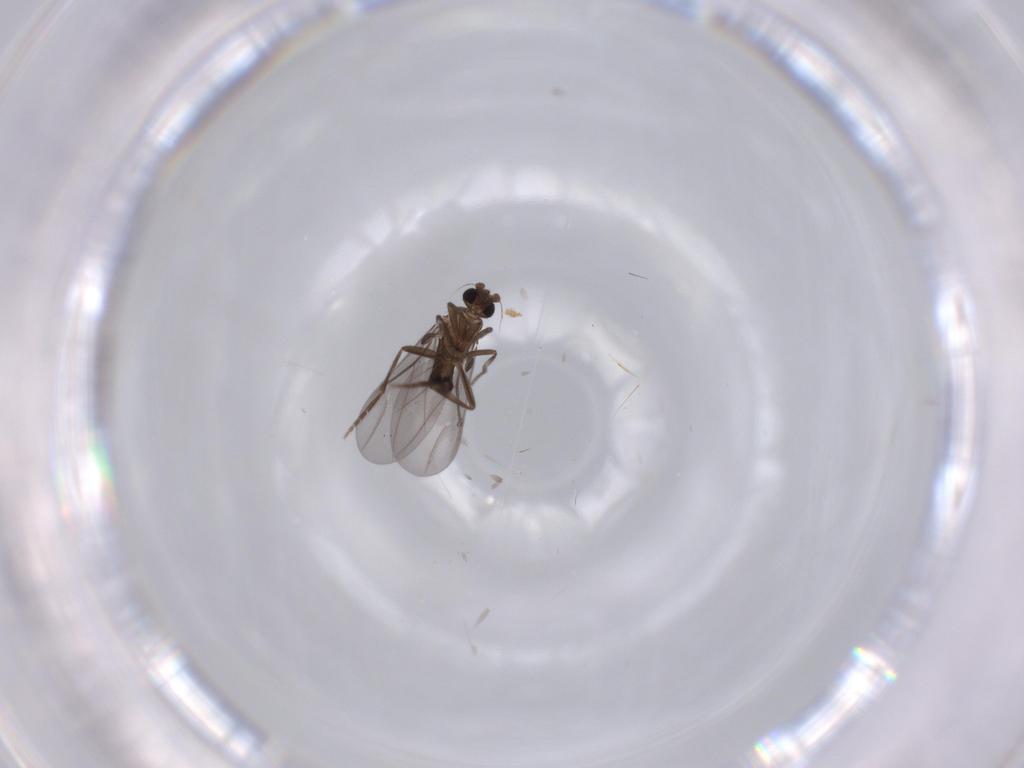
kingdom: Animalia
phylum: Arthropoda
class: Insecta
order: Diptera
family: Phoridae
